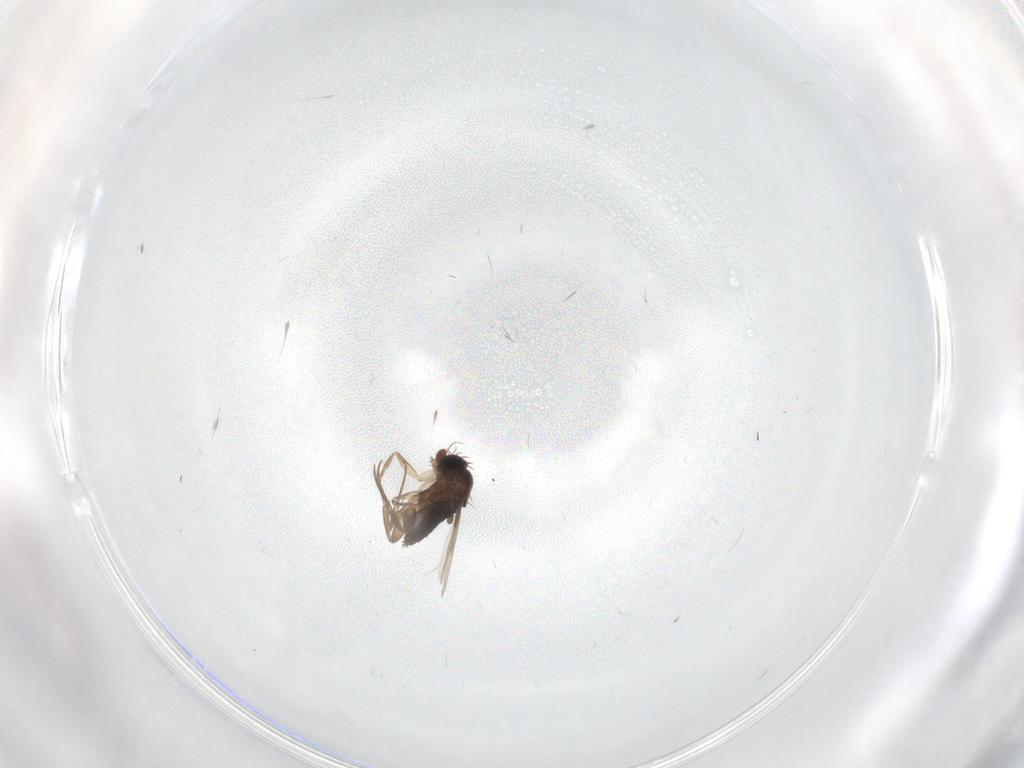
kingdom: Animalia
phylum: Arthropoda
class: Insecta
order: Diptera
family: Phoridae
